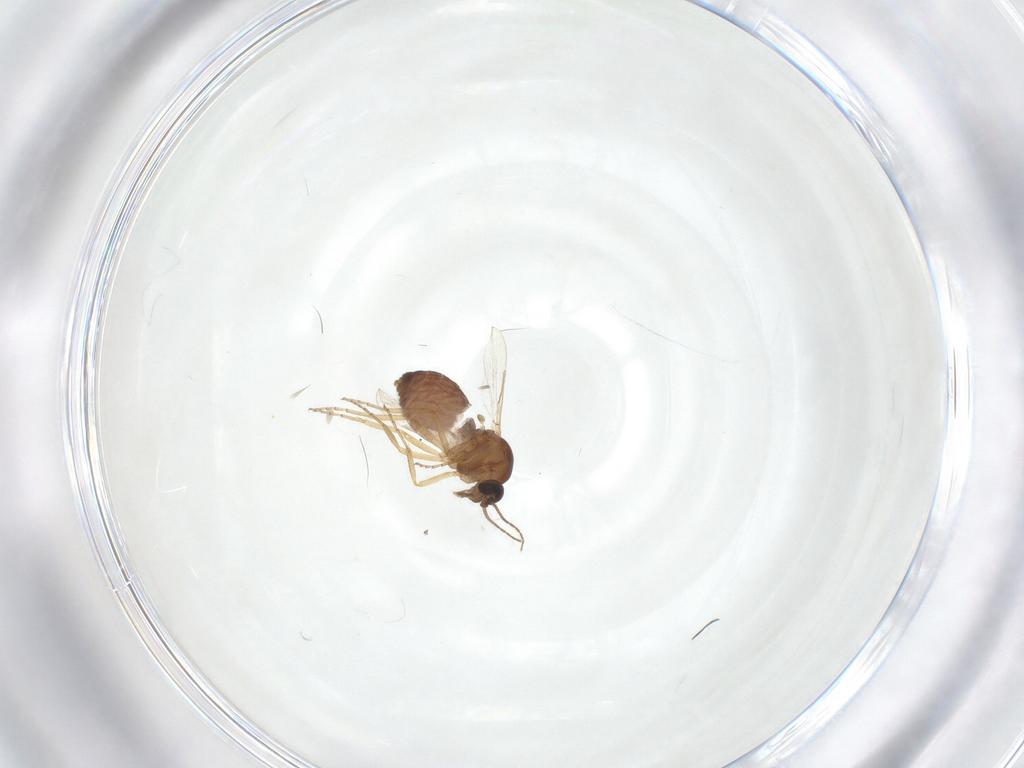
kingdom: Animalia
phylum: Arthropoda
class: Insecta
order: Diptera
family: Ceratopogonidae
